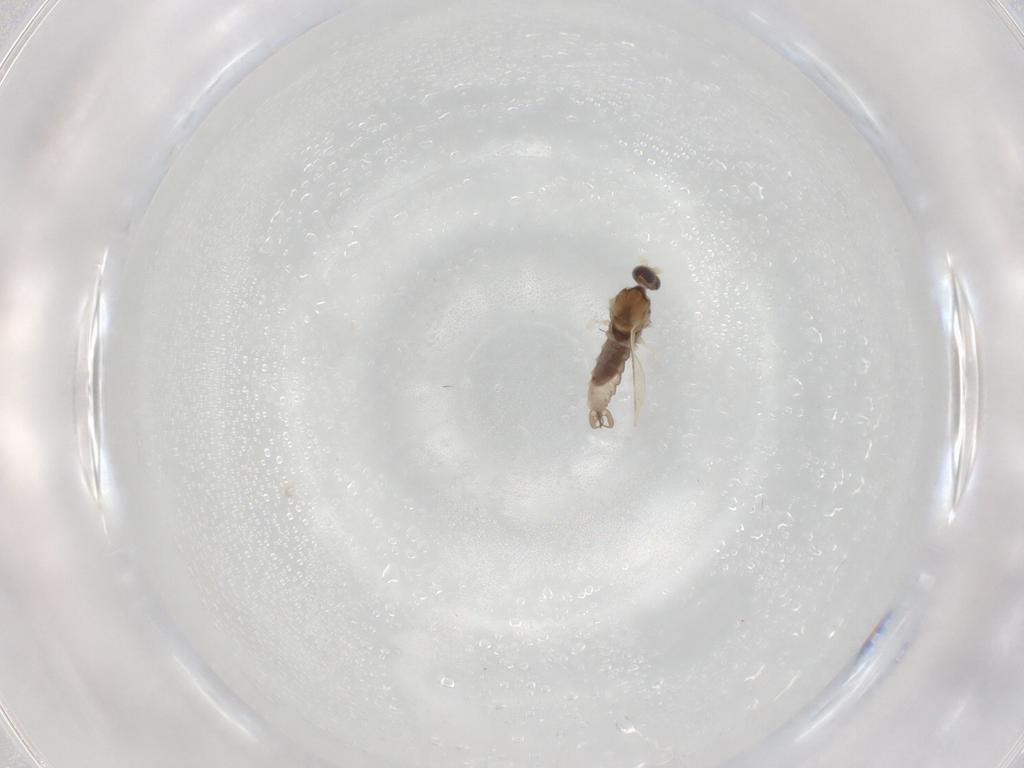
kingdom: Animalia
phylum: Arthropoda
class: Insecta
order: Diptera
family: Cecidomyiidae
